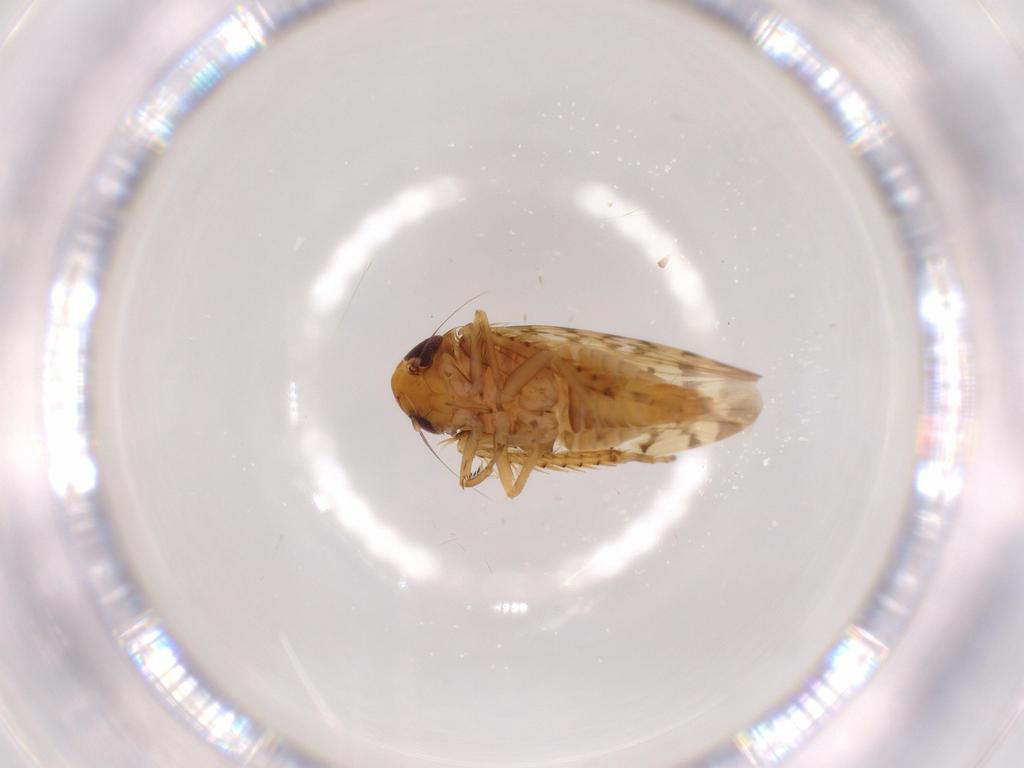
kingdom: Animalia
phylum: Arthropoda
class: Insecta
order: Hemiptera
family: Cicadellidae
